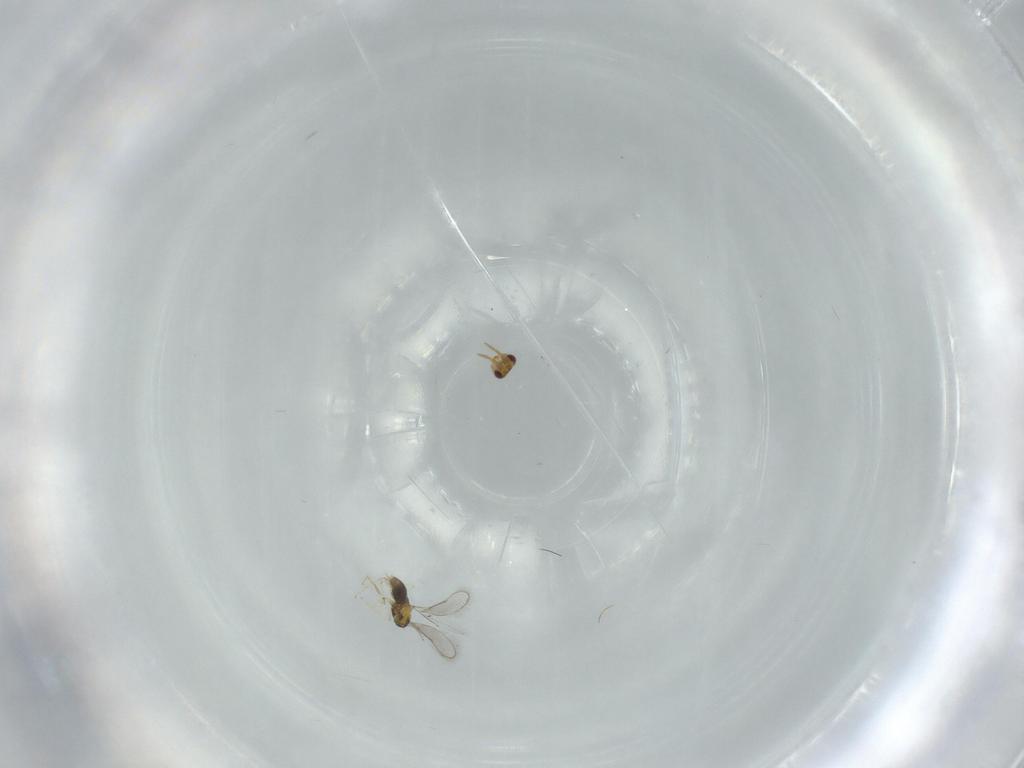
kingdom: Animalia
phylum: Arthropoda
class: Insecta
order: Hymenoptera
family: Aphelinidae
